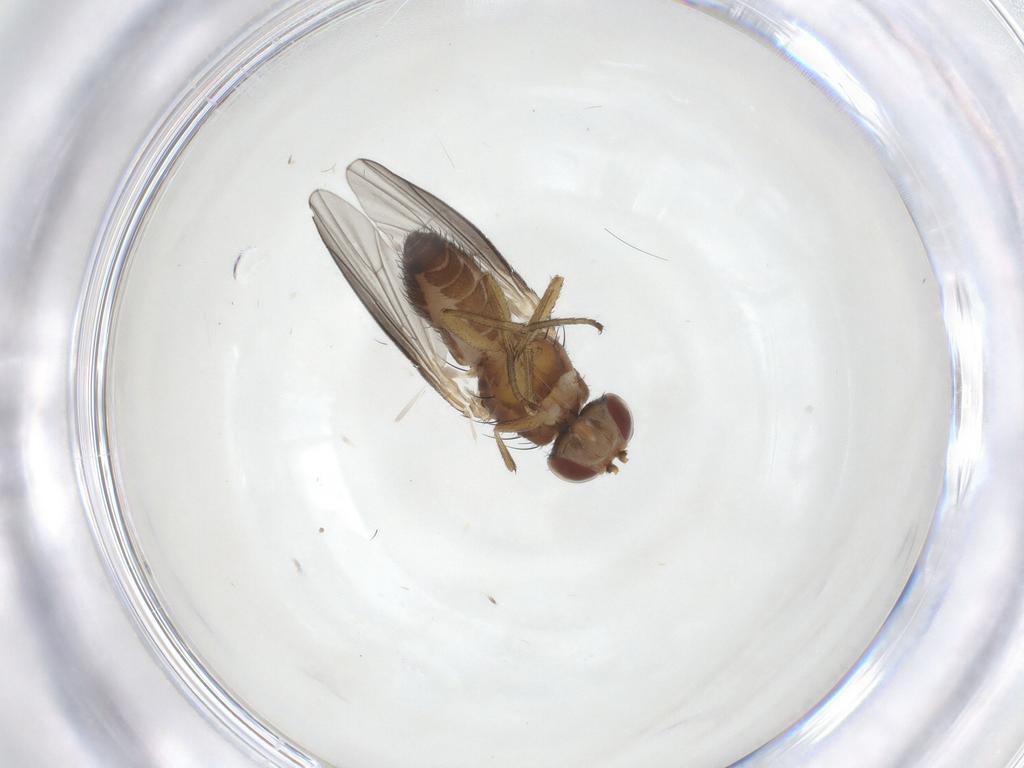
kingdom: Animalia
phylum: Arthropoda
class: Insecta
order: Diptera
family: Heleomyzidae
